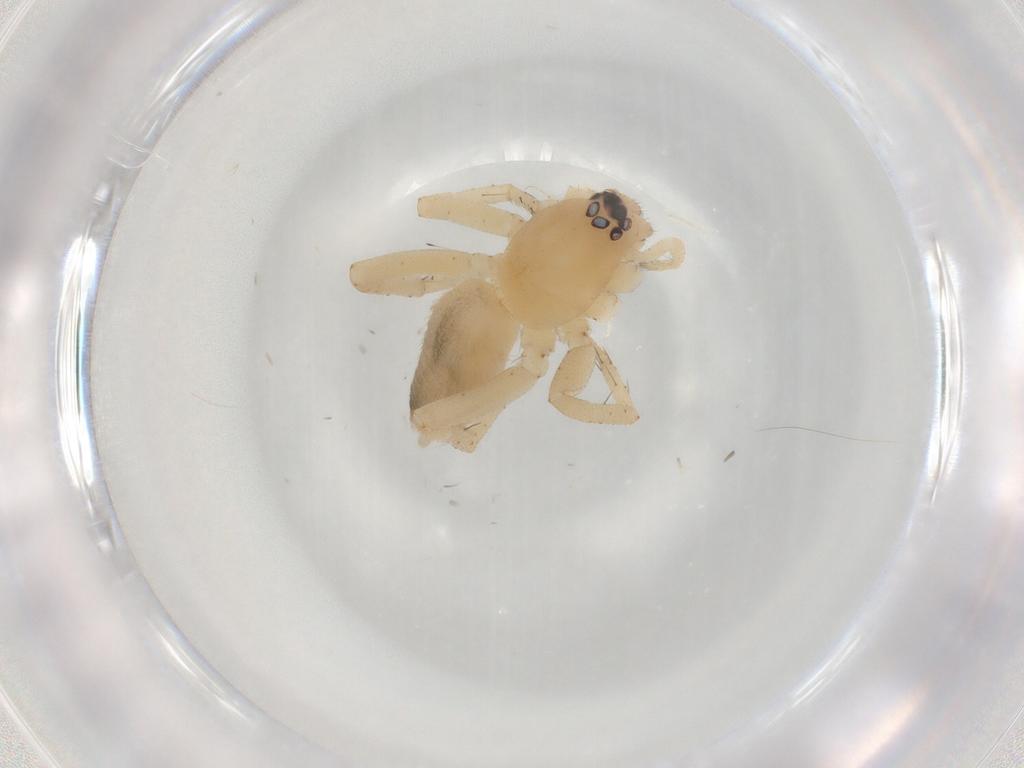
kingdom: Animalia
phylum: Arthropoda
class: Arachnida
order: Araneae
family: Gnaphosidae
